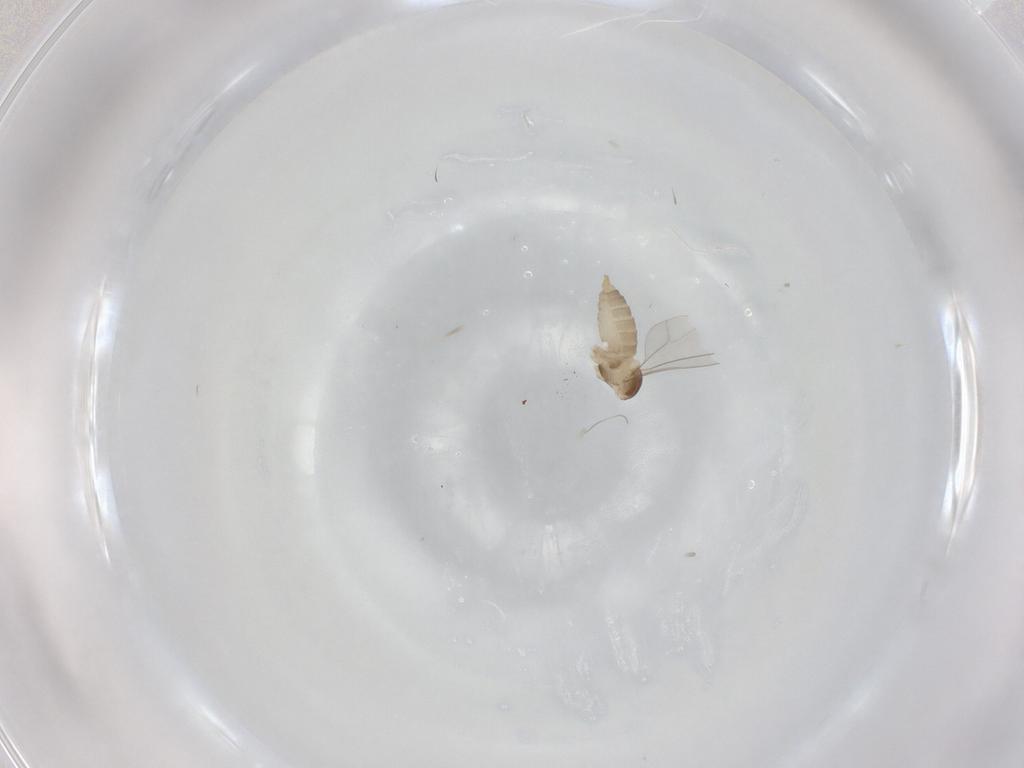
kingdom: Animalia
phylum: Arthropoda
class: Insecta
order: Diptera
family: Cecidomyiidae
